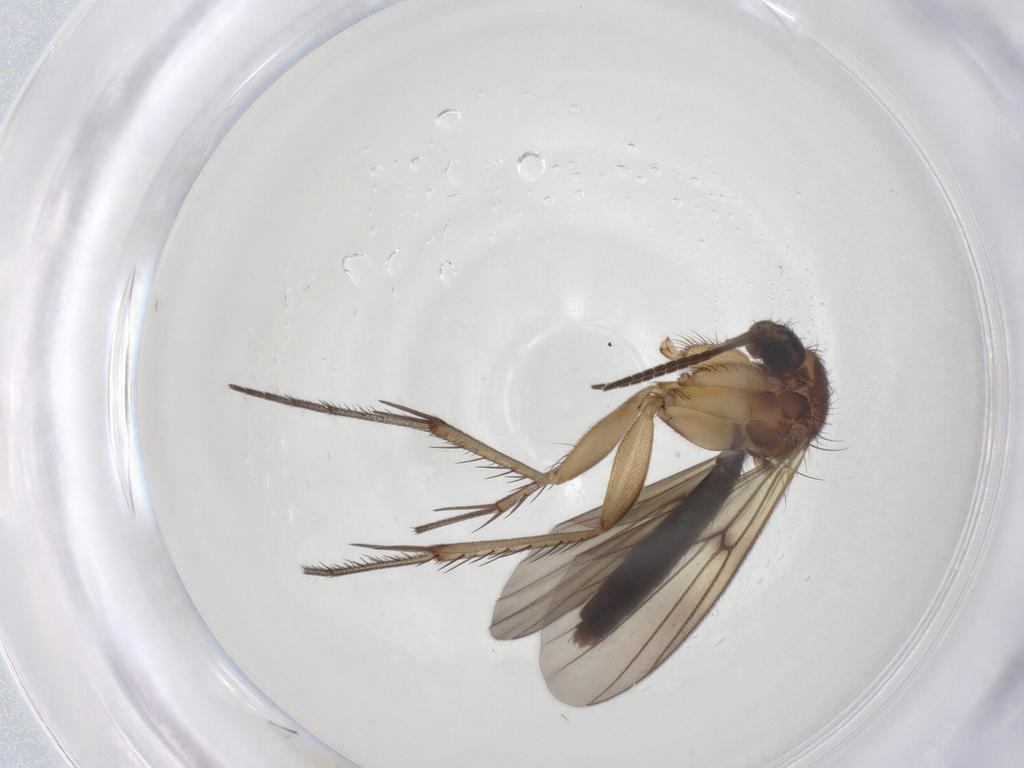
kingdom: Animalia
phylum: Arthropoda
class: Insecta
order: Diptera
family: Mycetophilidae
